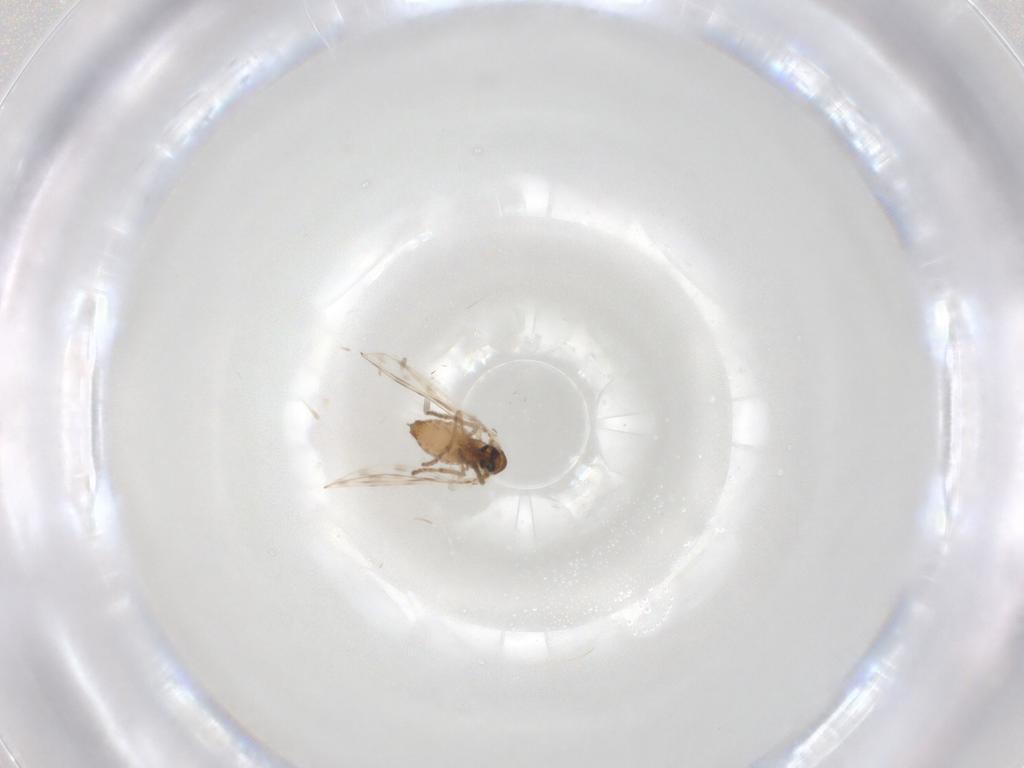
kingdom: Animalia
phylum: Arthropoda
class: Insecta
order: Diptera
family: Psychodidae
